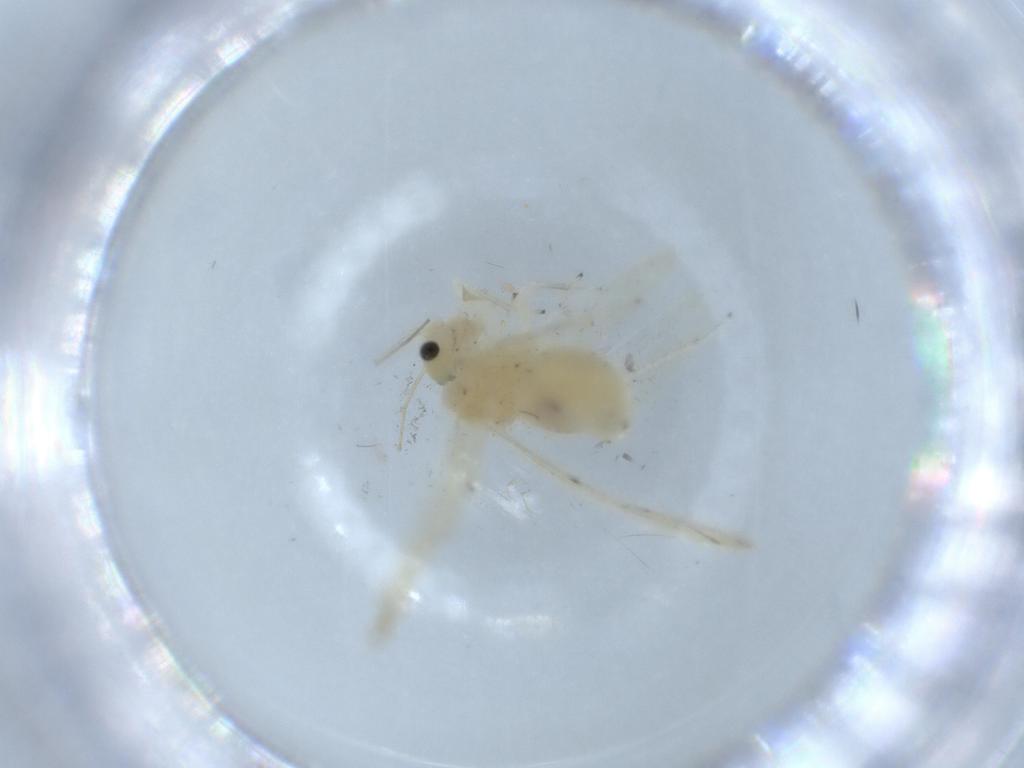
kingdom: Animalia
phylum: Arthropoda
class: Insecta
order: Psocodea
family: Caeciliusidae
